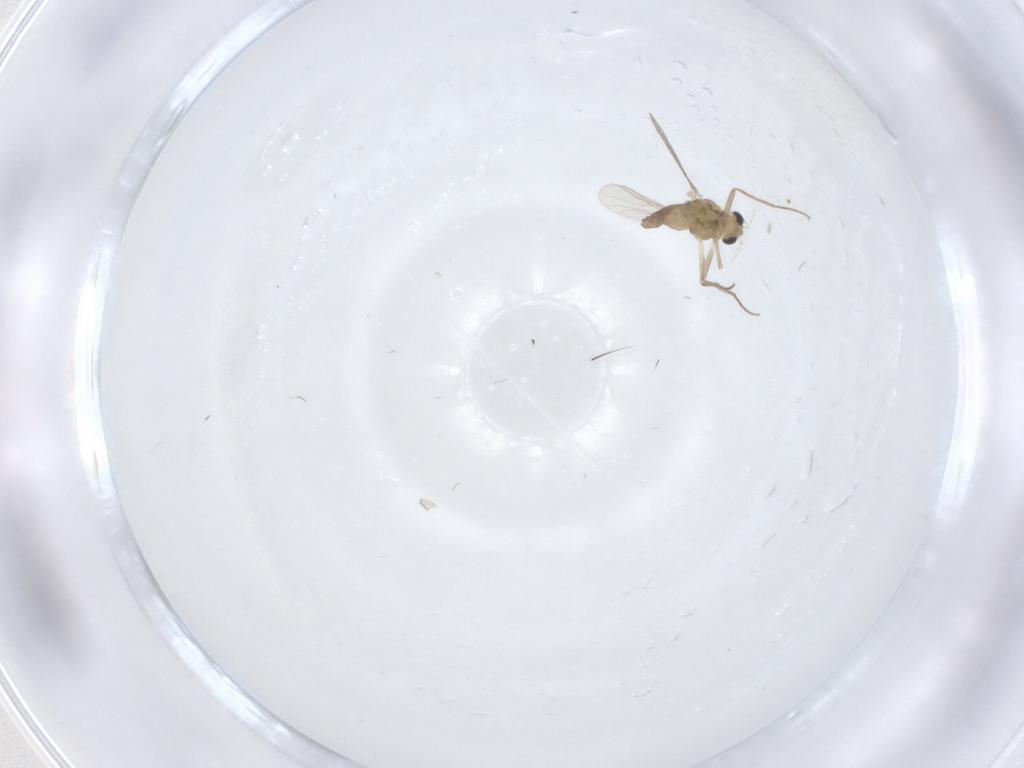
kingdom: Animalia
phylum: Arthropoda
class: Insecta
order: Diptera
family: Chironomidae
